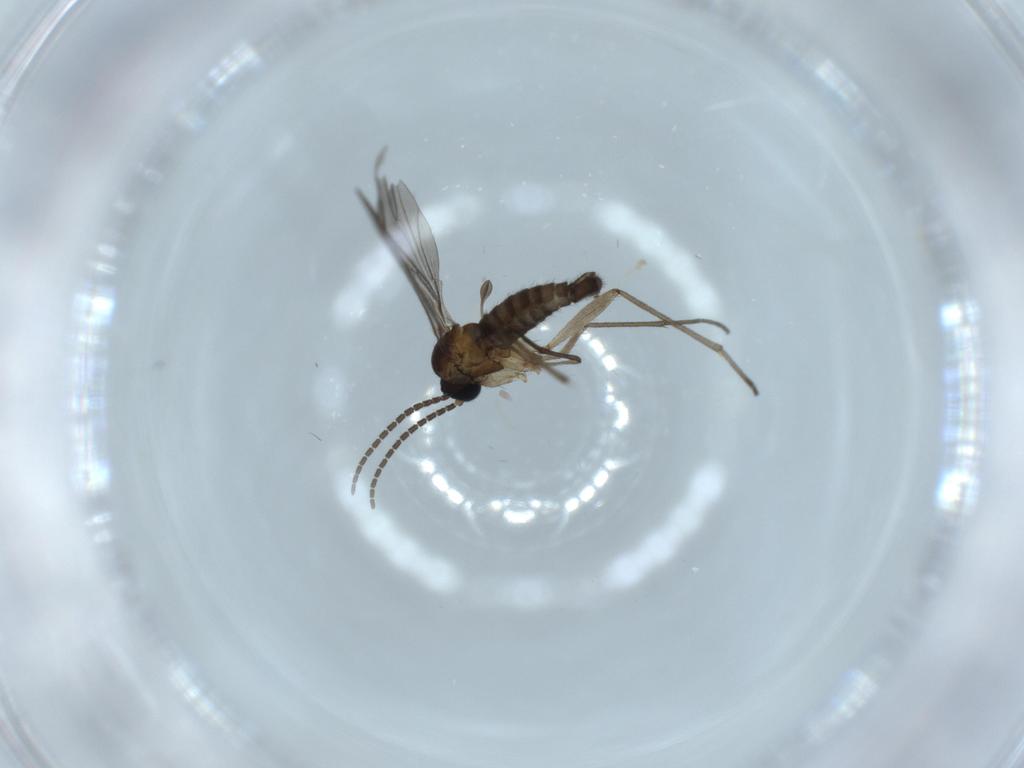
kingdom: Animalia
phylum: Arthropoda
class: Insecta
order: Diptera
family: Sciaridae
